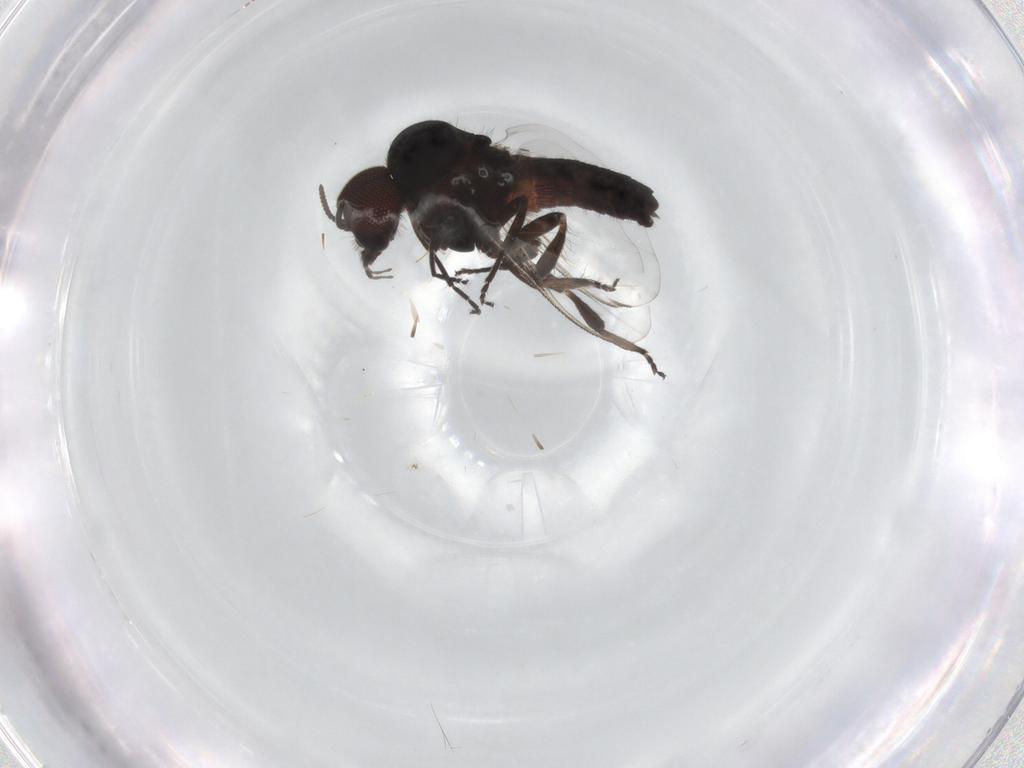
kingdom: Animalia
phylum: Arthropoda
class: Insecta
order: Diptera
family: Simuliidae
